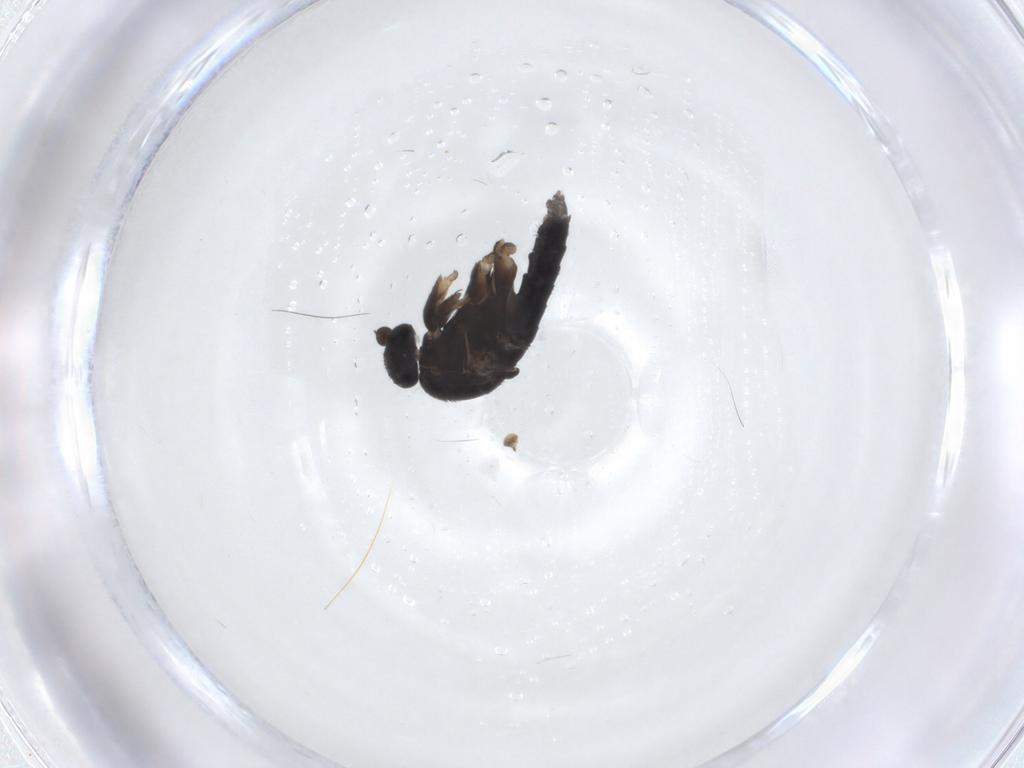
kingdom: Animalia
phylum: Arthropoda
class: Insecta
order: Diptera
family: Phoridae
